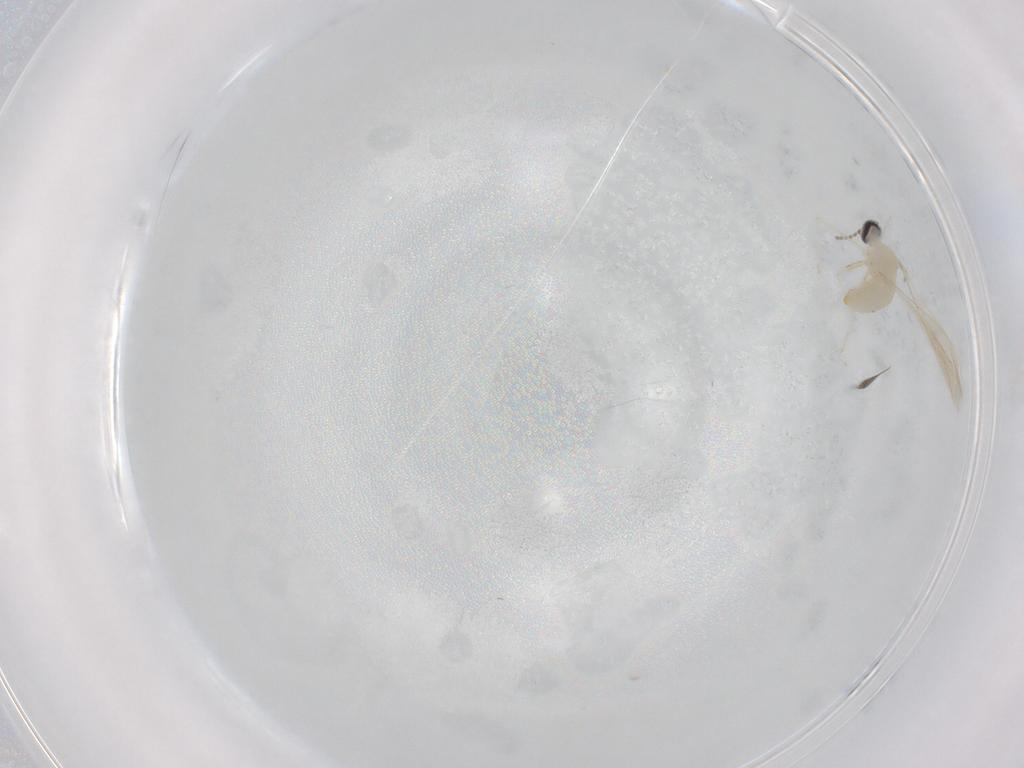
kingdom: Animalia
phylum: Arthropoda
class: Insecta
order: Diptera
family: Cecidomyiidae
